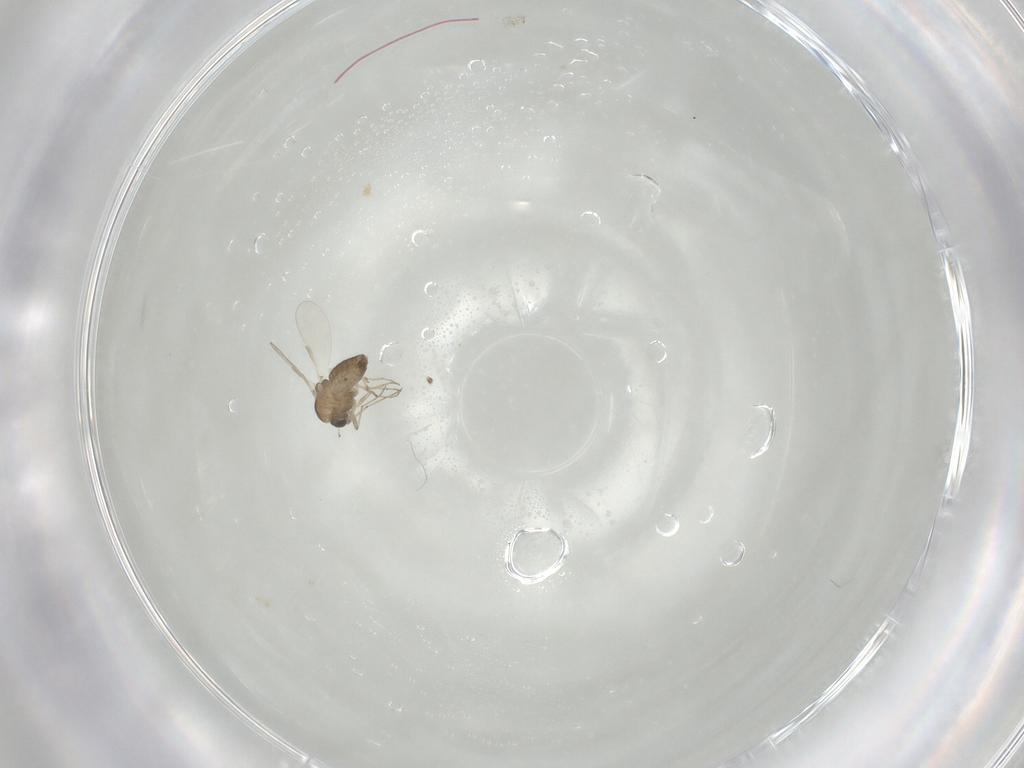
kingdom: Animalia
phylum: Arthropoda
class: Insecta
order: Diptera
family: Chironomidae
